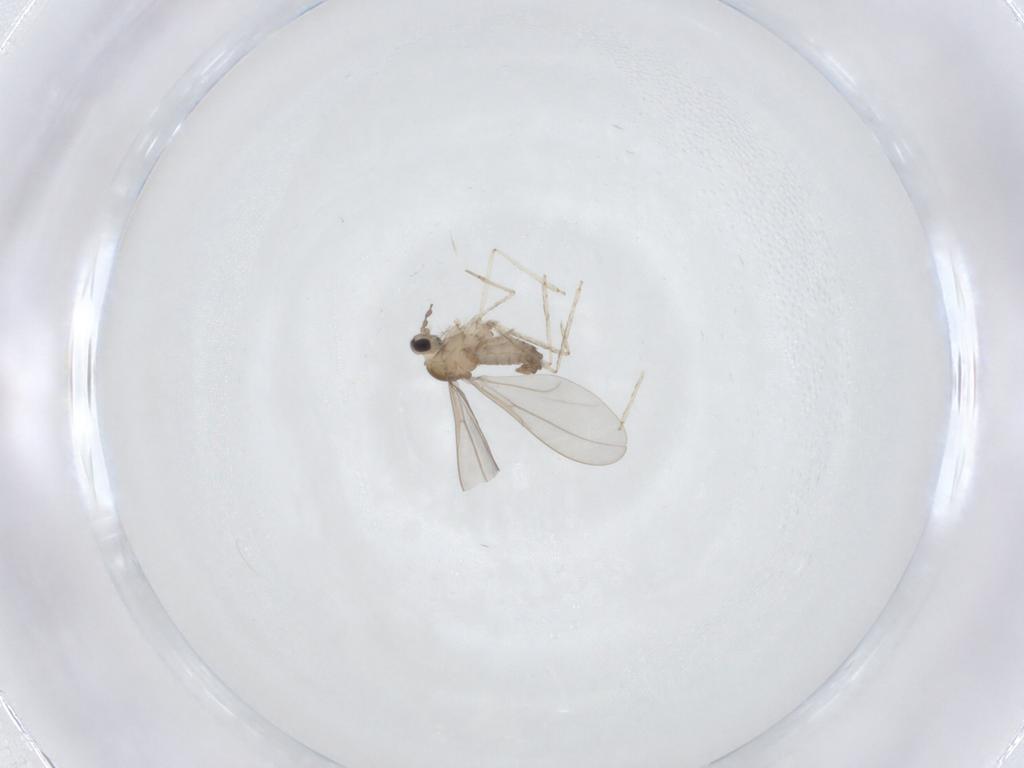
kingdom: Animalia
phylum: Arthropoda
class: Insecta
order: Diptera
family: Cecidomyiidae
